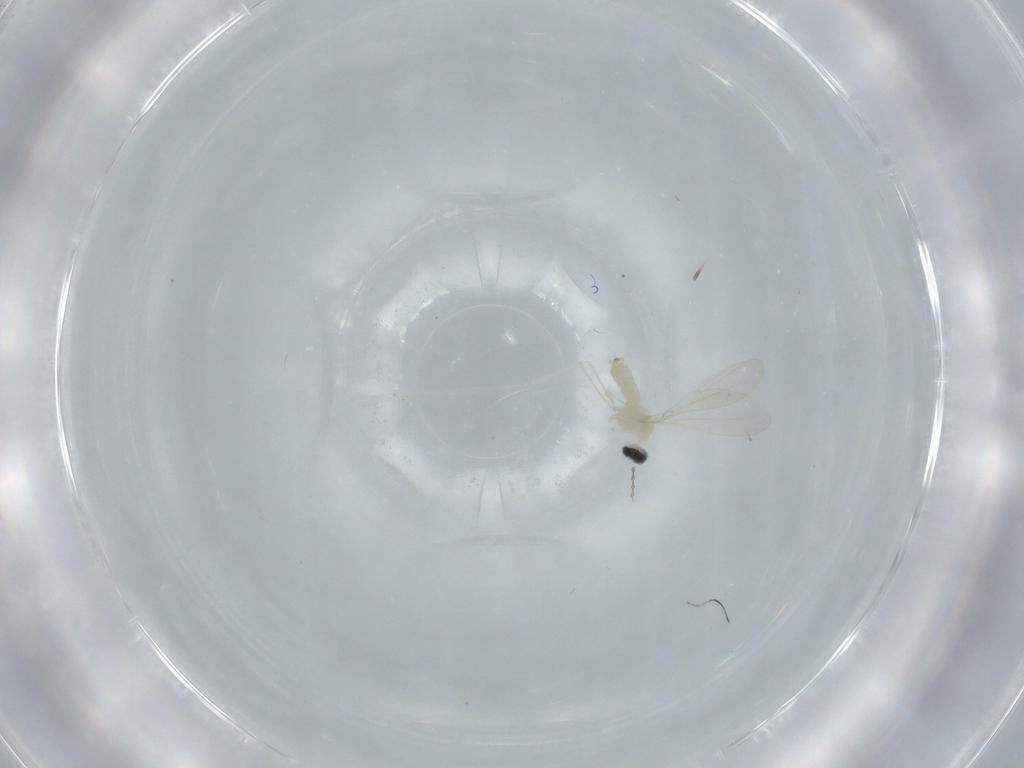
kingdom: Animalia
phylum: Arthropoda
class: Insecta
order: Diptera
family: Cecidomyiidae
